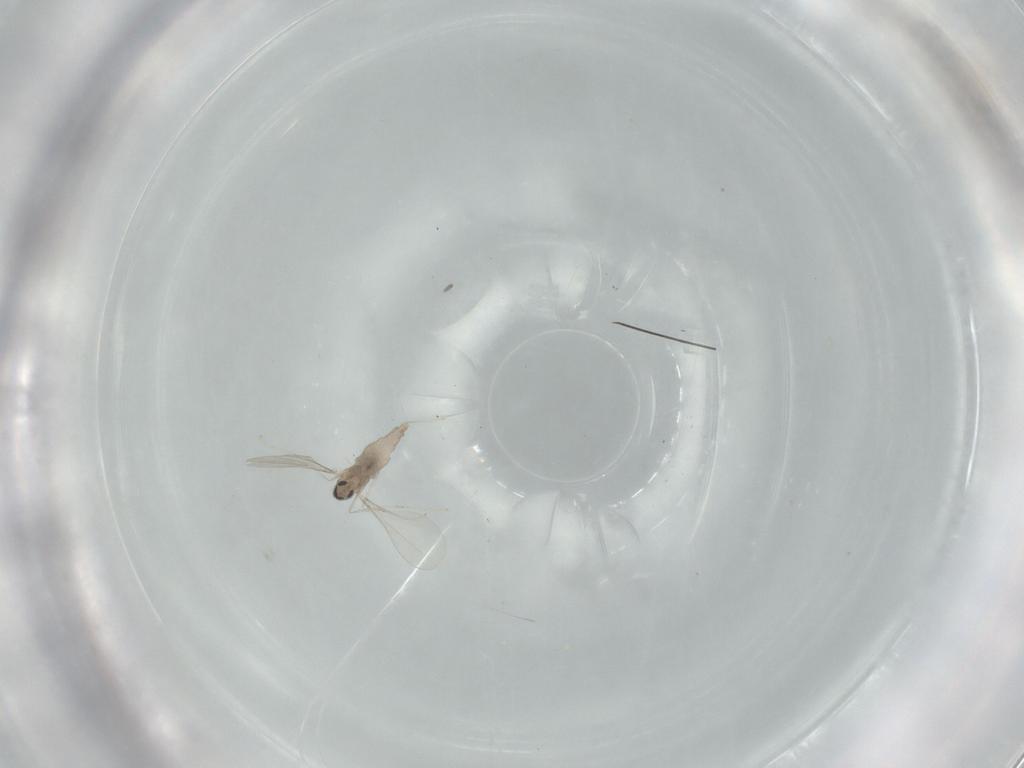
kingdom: Animalia
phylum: Arthropoda
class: Insecta
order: Diptera
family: Cecidomyiidae
